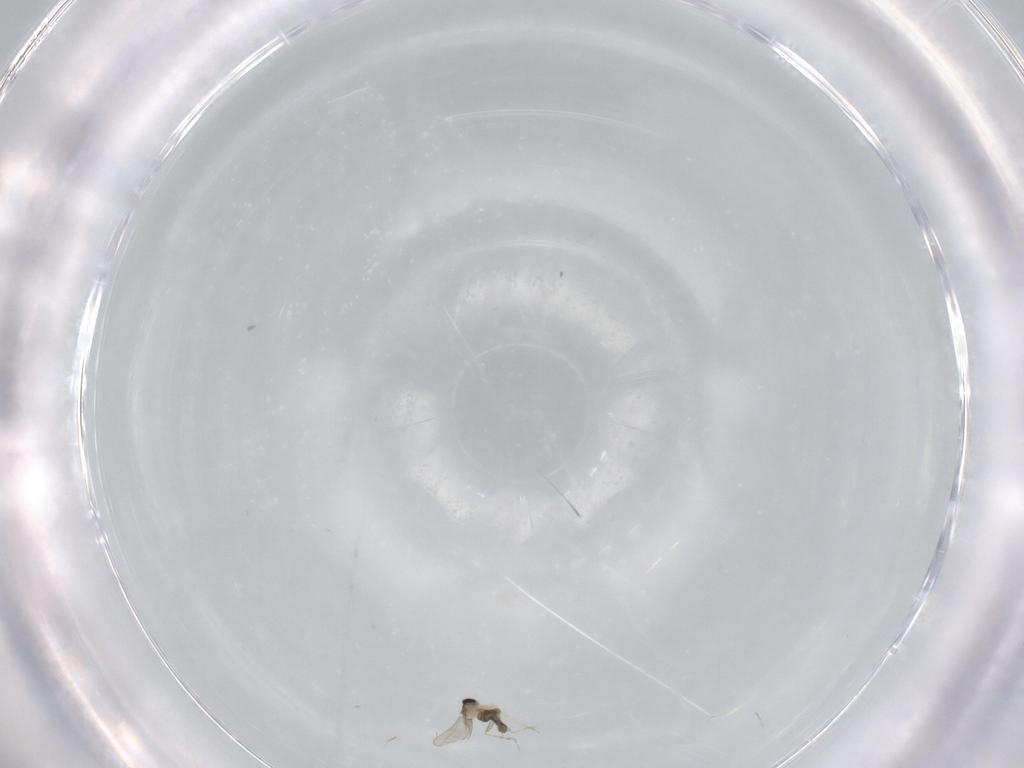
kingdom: Animalia
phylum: Arthropoda
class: Insecta
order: Diptera
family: Cecidomyiidae
